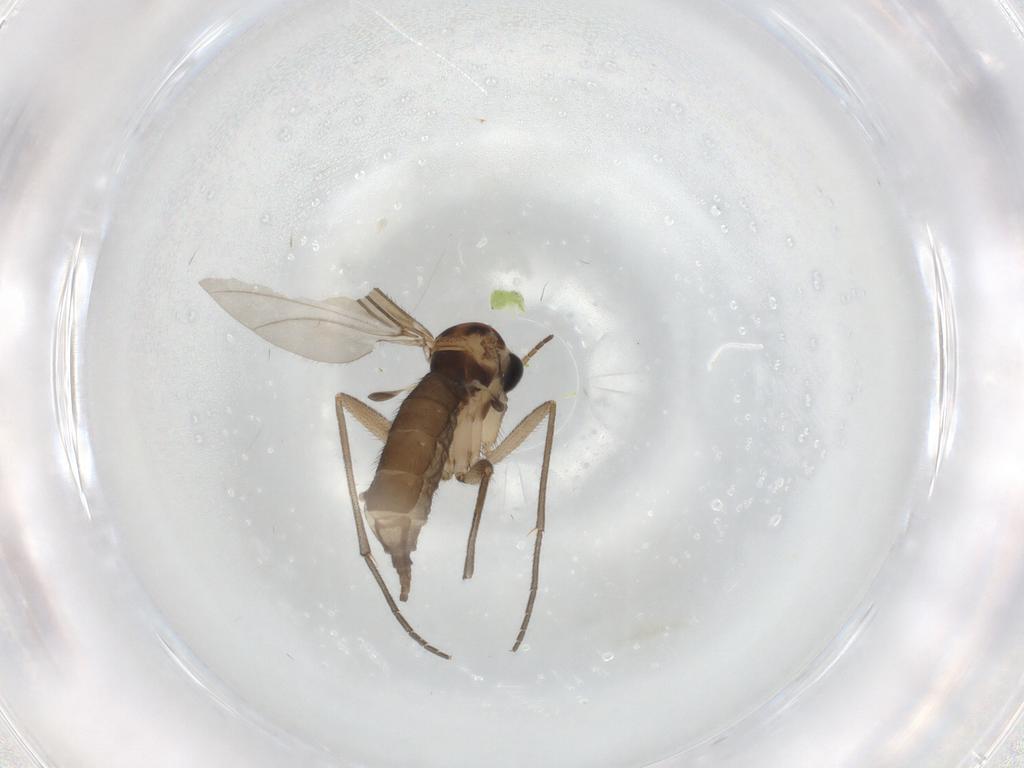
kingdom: Animalia
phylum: Arthropoda
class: Insecta
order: Diptera
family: Sciaridae
